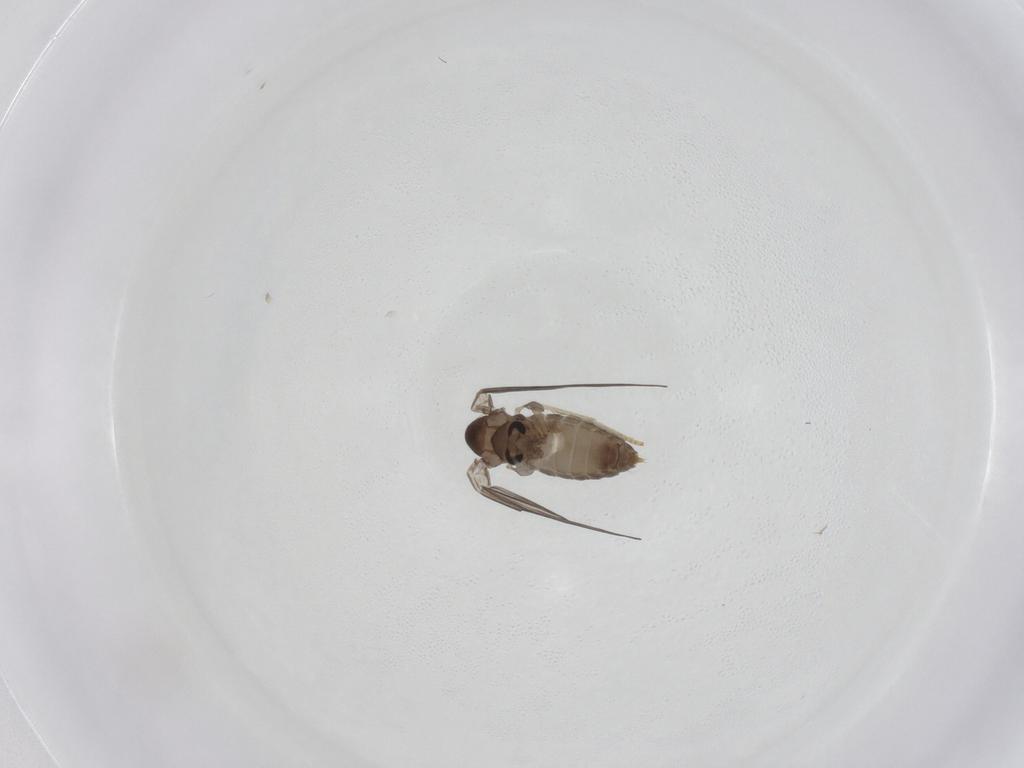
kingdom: Animalia
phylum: Arthropoda
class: Insecta
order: Diptera
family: Psychodidae
